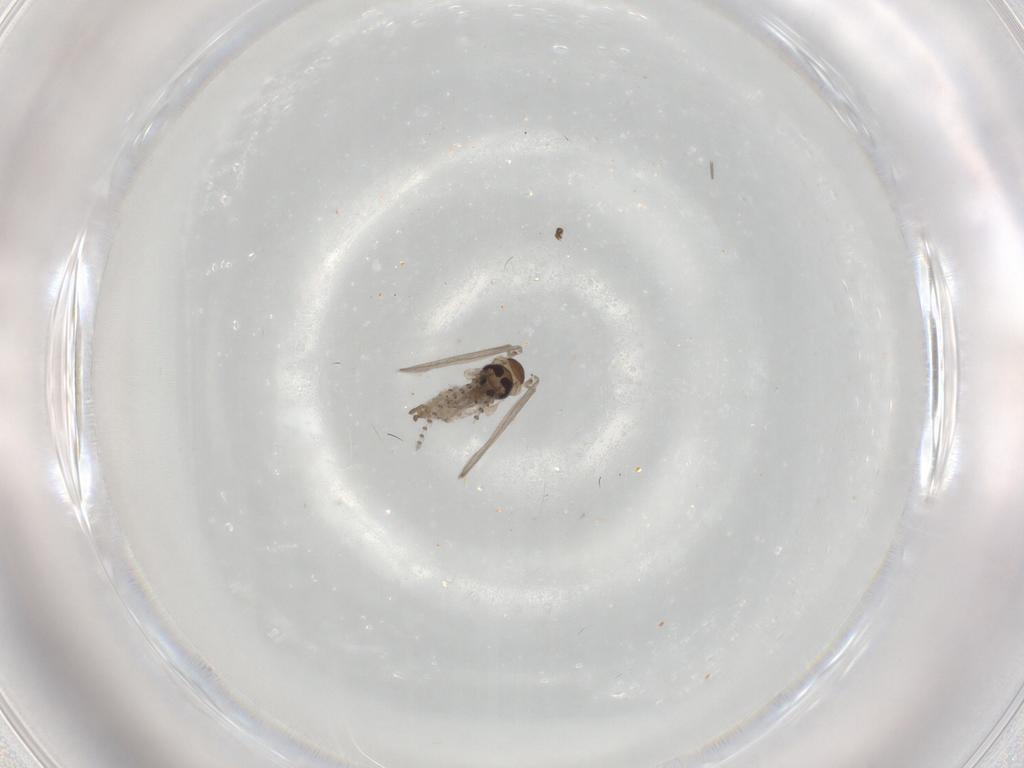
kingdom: Animalia
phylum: Arthropoda
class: Insecta
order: Diptera
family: Psychodidae
